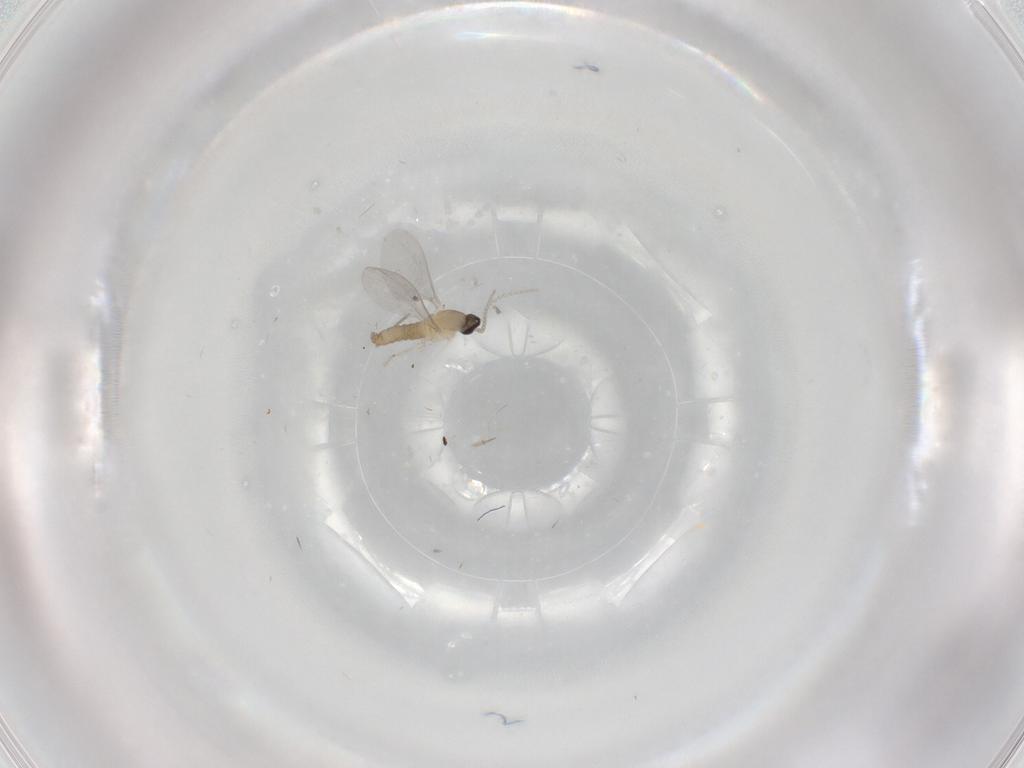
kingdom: Animalia
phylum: Arthropoda
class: Insecta
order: Diptera
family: Cecidomyiidae
